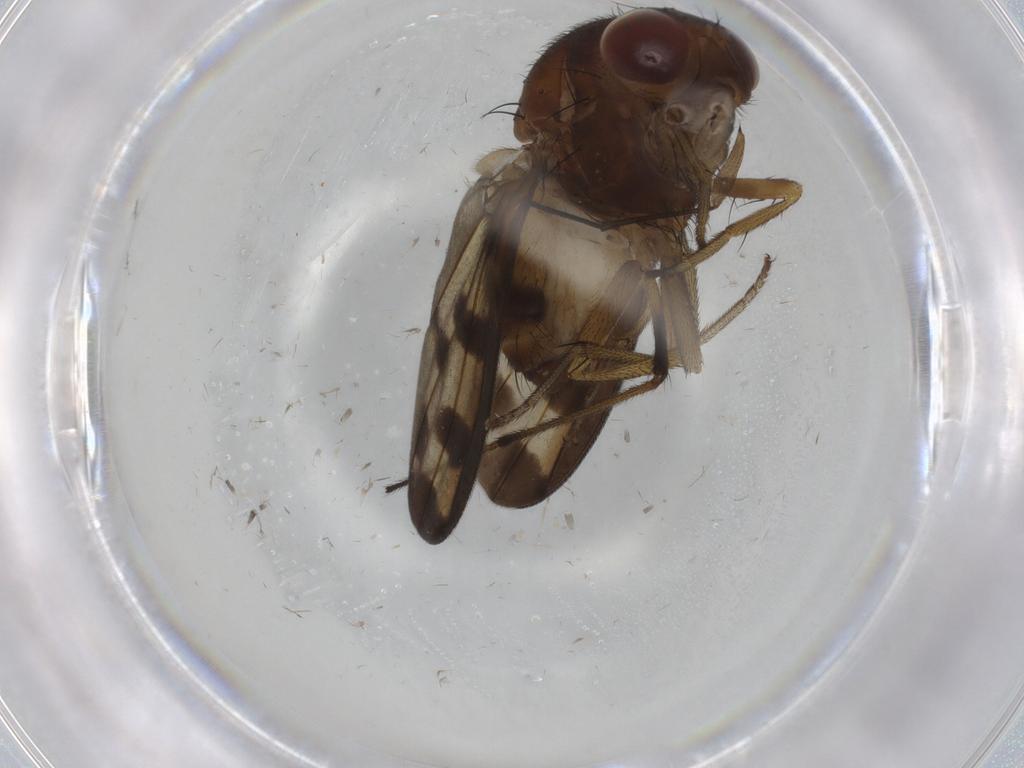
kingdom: Animalia
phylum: Arthropoda
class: Insecta
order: Diptera
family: Limoniidae
